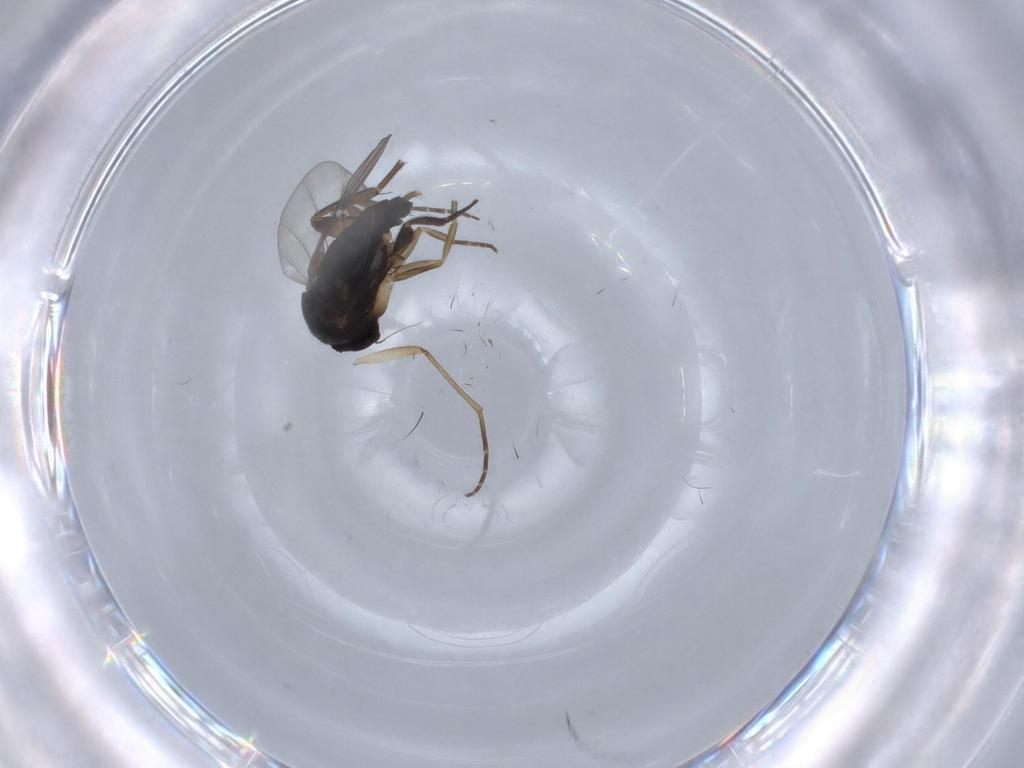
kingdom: Animalia
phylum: Arthropoda
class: Insecta
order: Diptera
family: Phoridae
